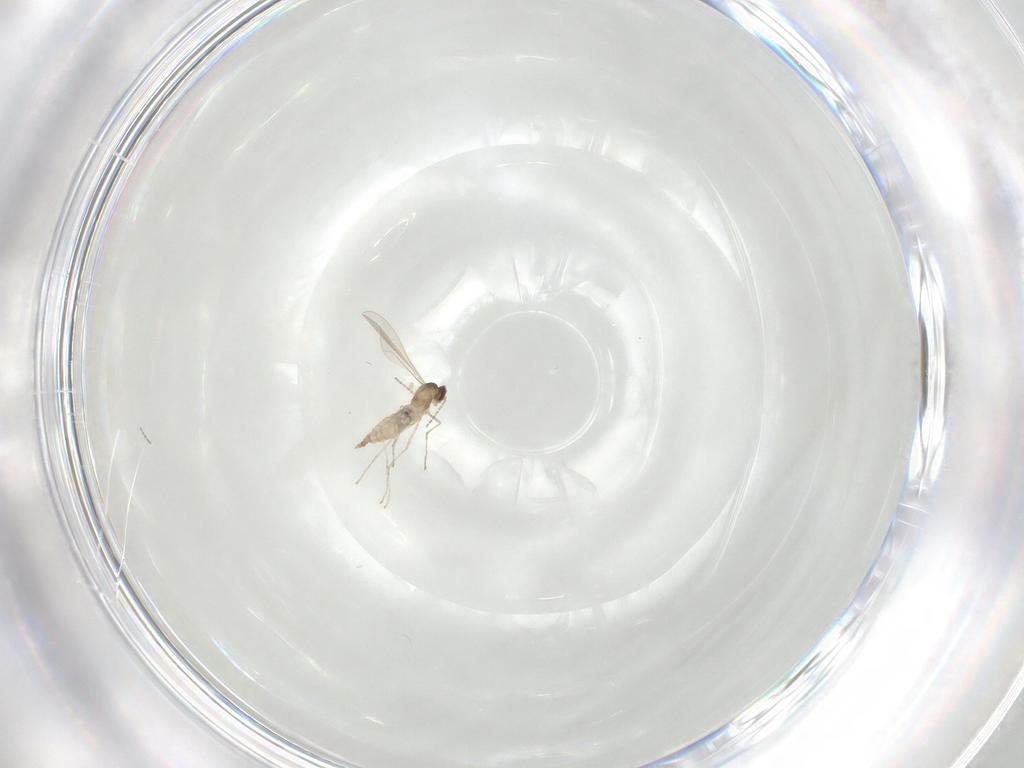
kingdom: Animalia
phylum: Arthropoda
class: Insecta
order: Diptera
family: Cecidomyiidae
